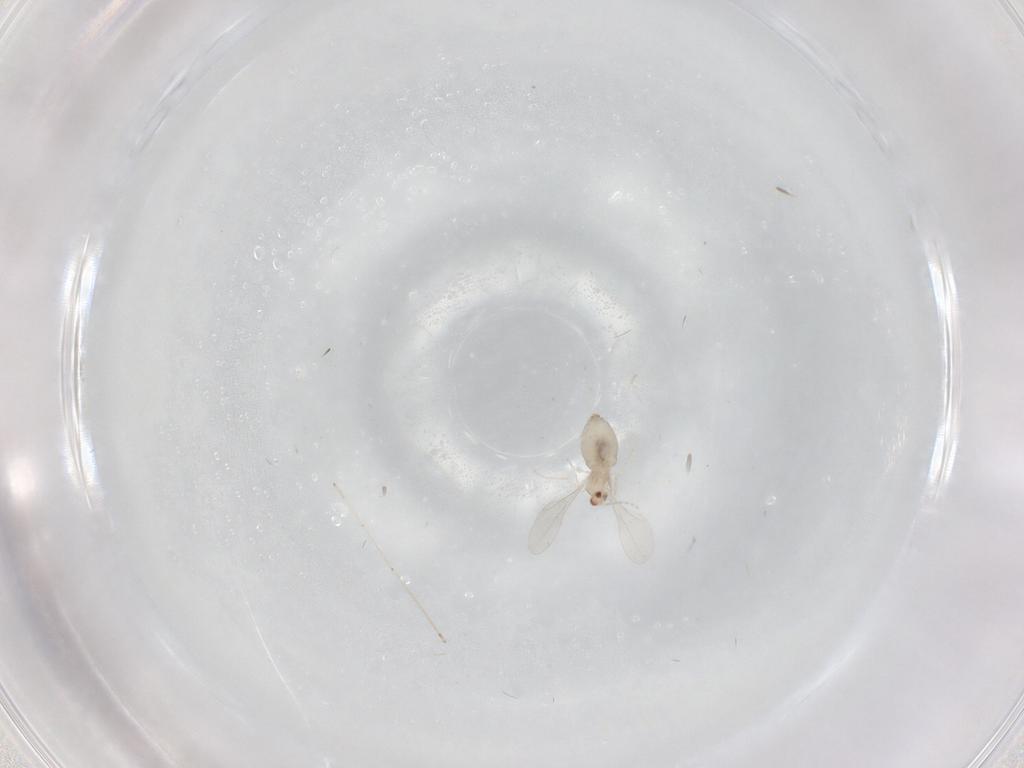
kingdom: Animalia
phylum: Arthropoda
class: Insecta
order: Diptera
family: Cecidomyiidae
